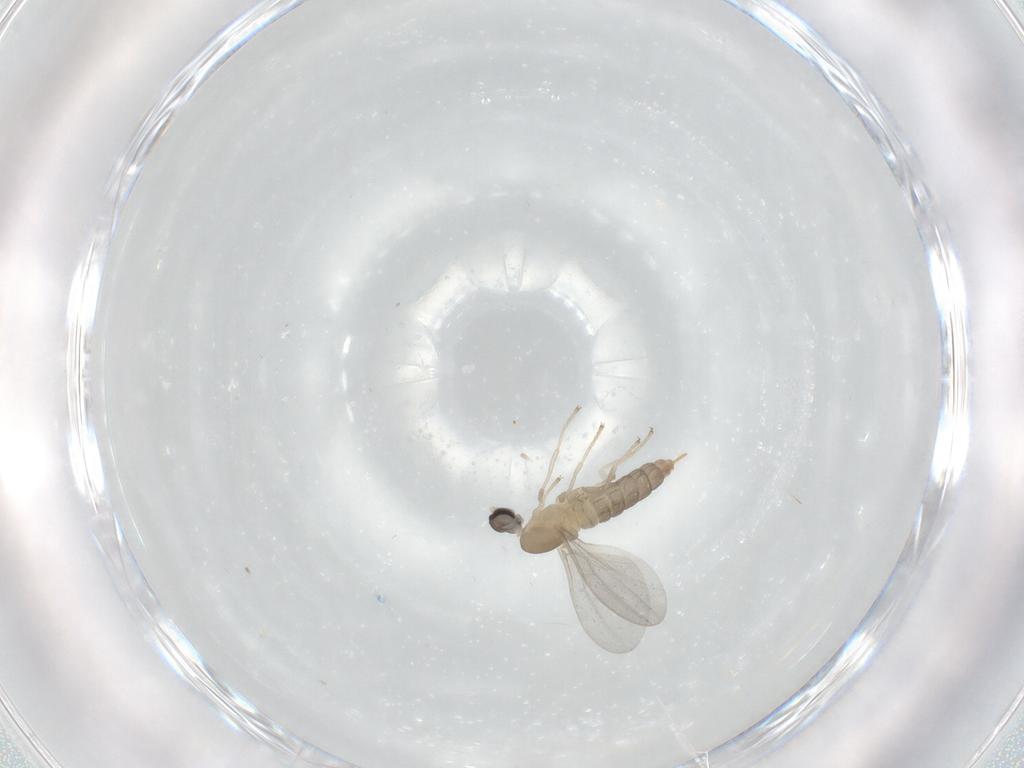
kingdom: Animalia
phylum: Arthropoda
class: Insecta
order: Diptera
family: Cecidomyiidae
